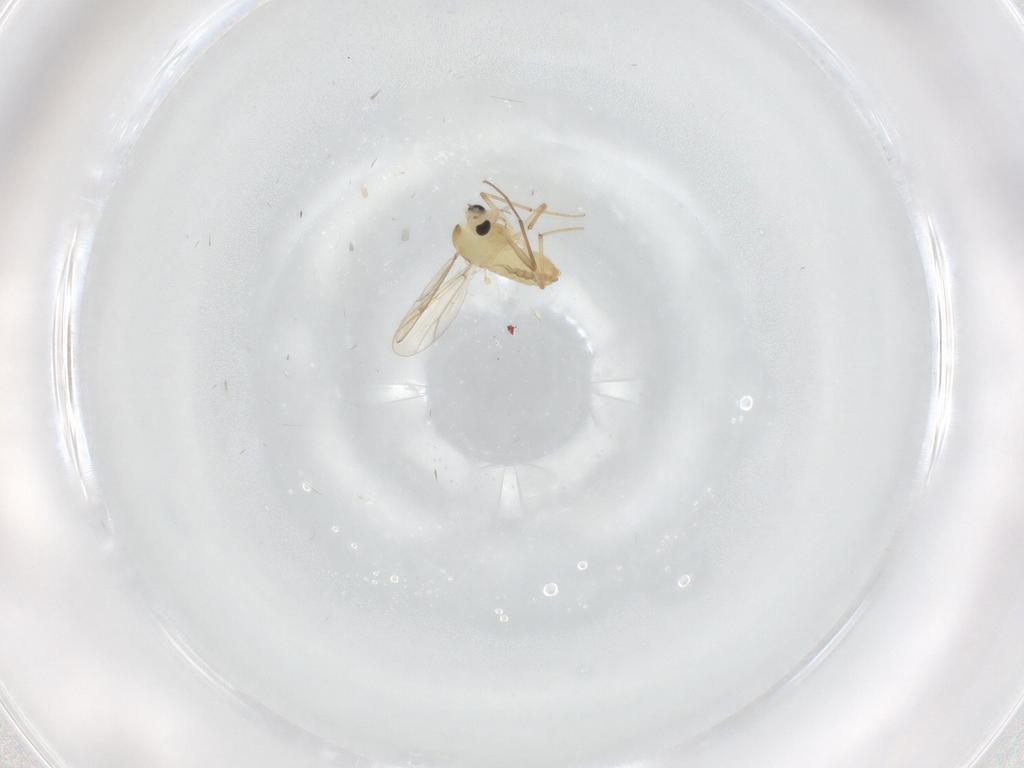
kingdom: Animalia
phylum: Arthropoda
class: Insecta
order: Diptera
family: Chironomidae
